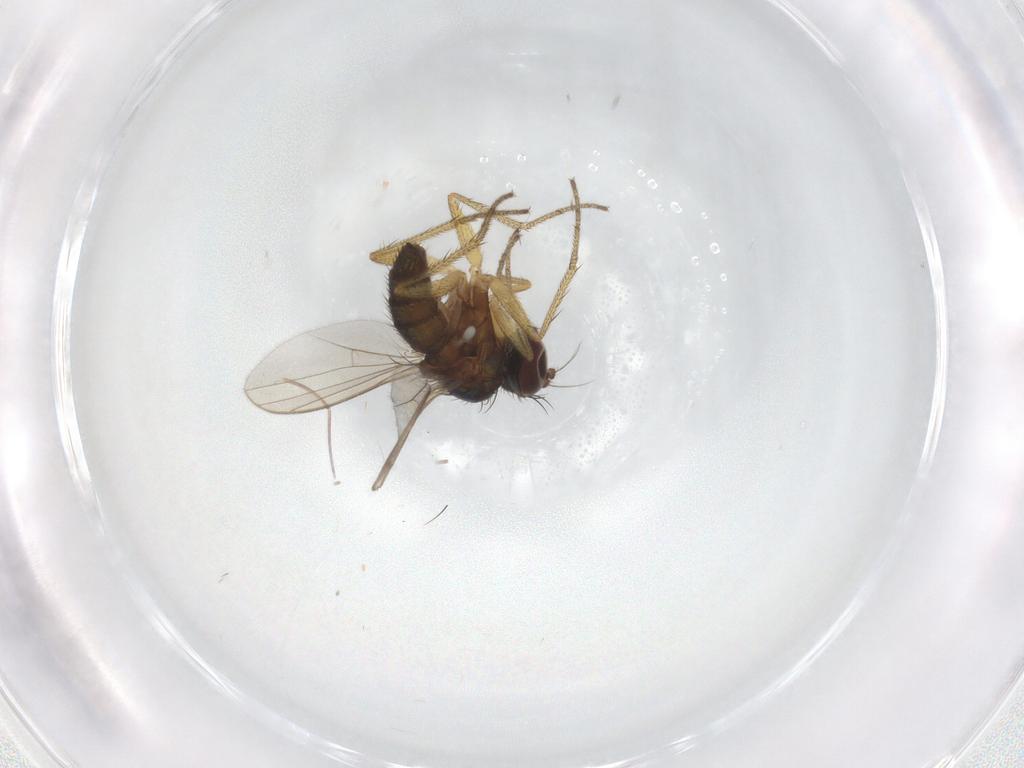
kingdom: Animalia
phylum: Arthropoda
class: Insecta
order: Diptera
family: Dolichopodidae
